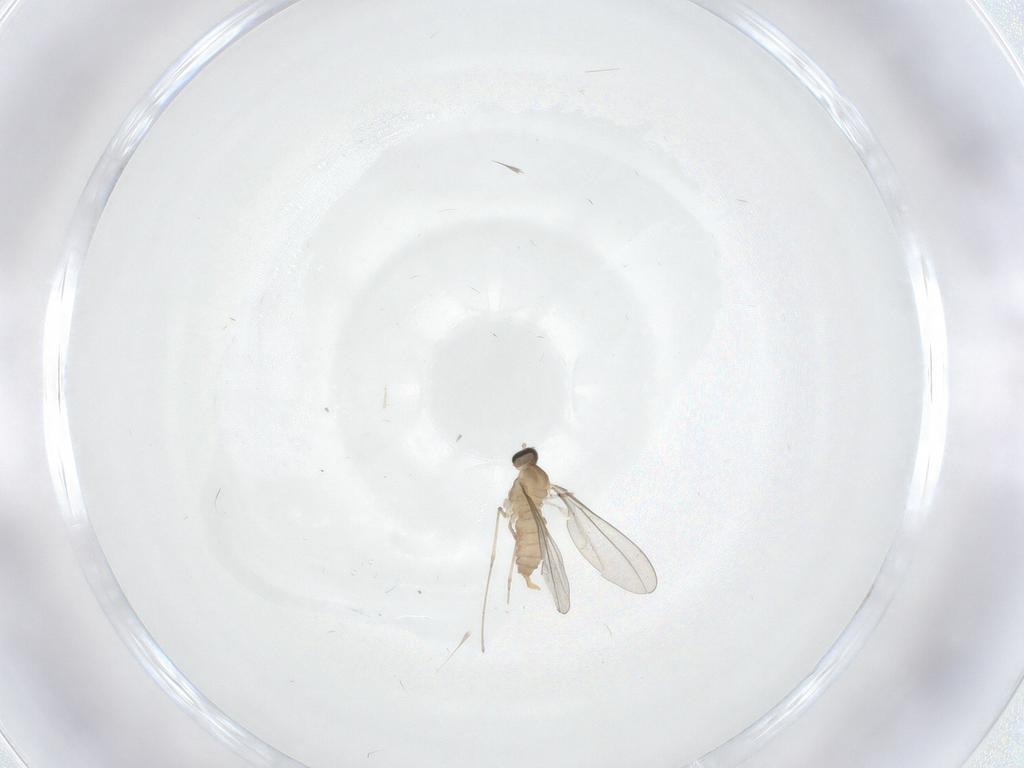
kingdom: Animalia
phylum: Arthropoda
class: Insecta
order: Diptera
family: Cecidomyiidae
